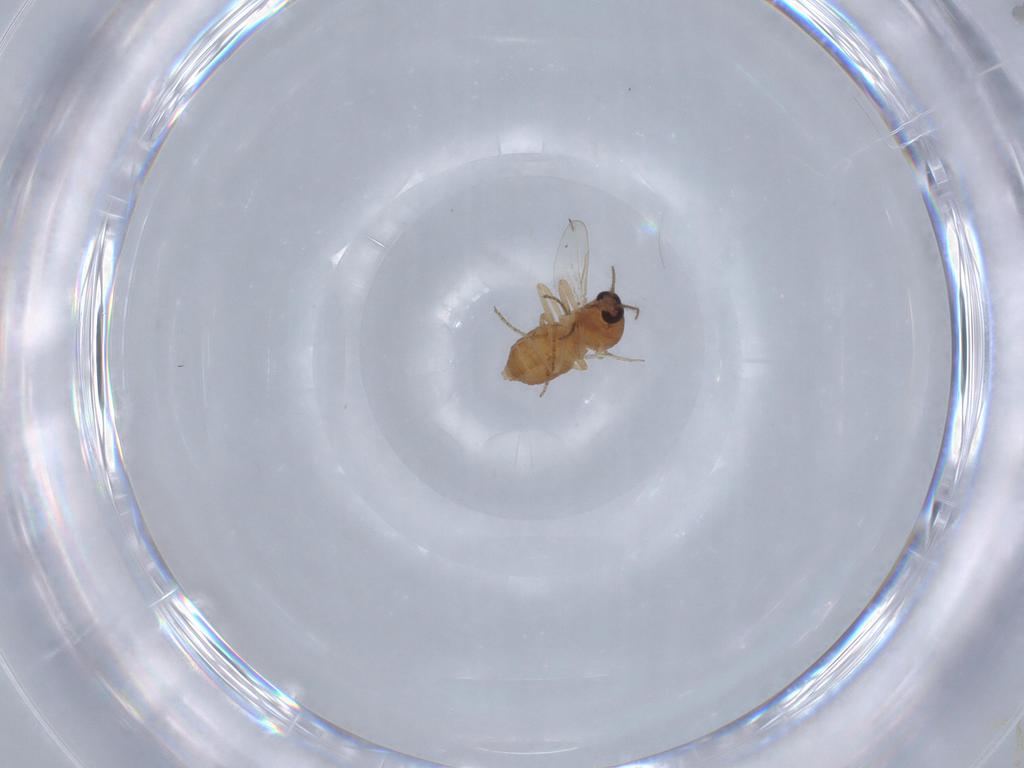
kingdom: Animalia
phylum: Arthropoda
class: Insecta
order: Diptera
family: Ceratopogonidae
